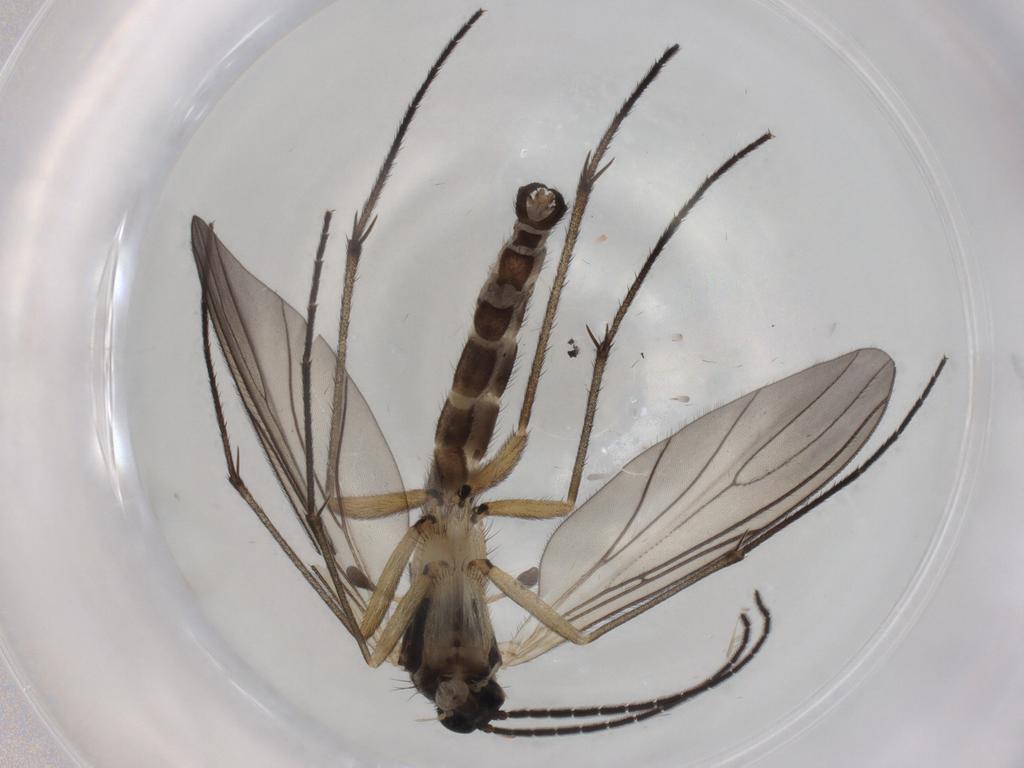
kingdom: Animalia
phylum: Arthropoda
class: Insecta
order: Diptera
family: Sciaridae
